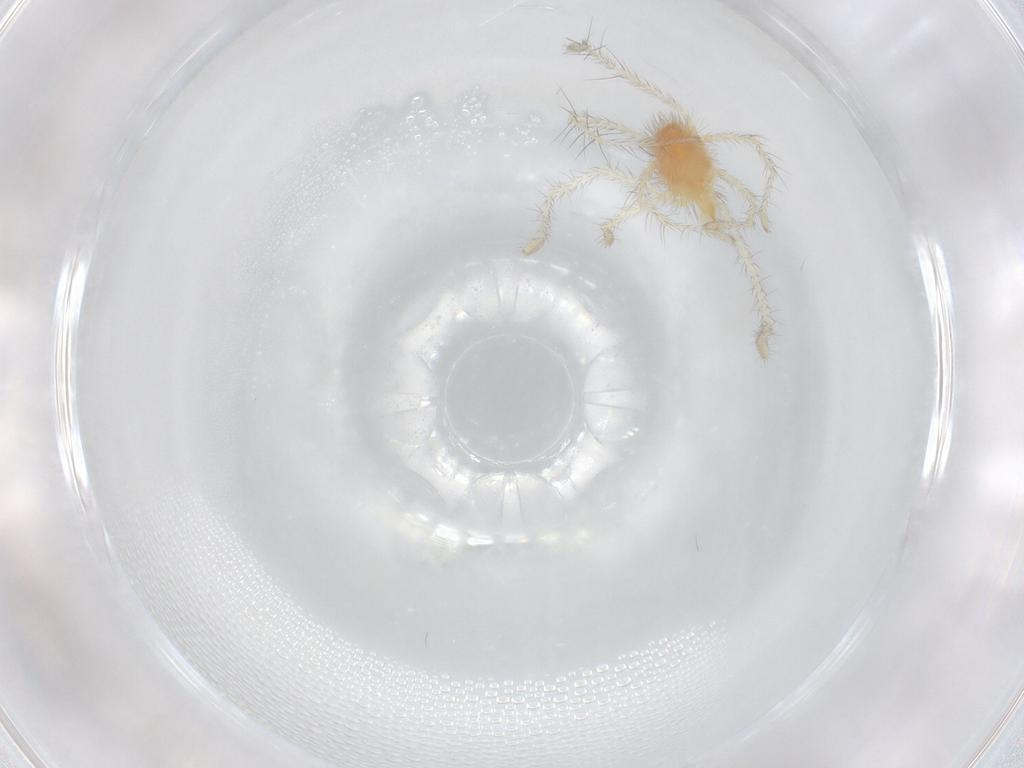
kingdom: Animalia
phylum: Arthropoda
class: Arachnida
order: Trombidiformes
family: Erythraeidae
